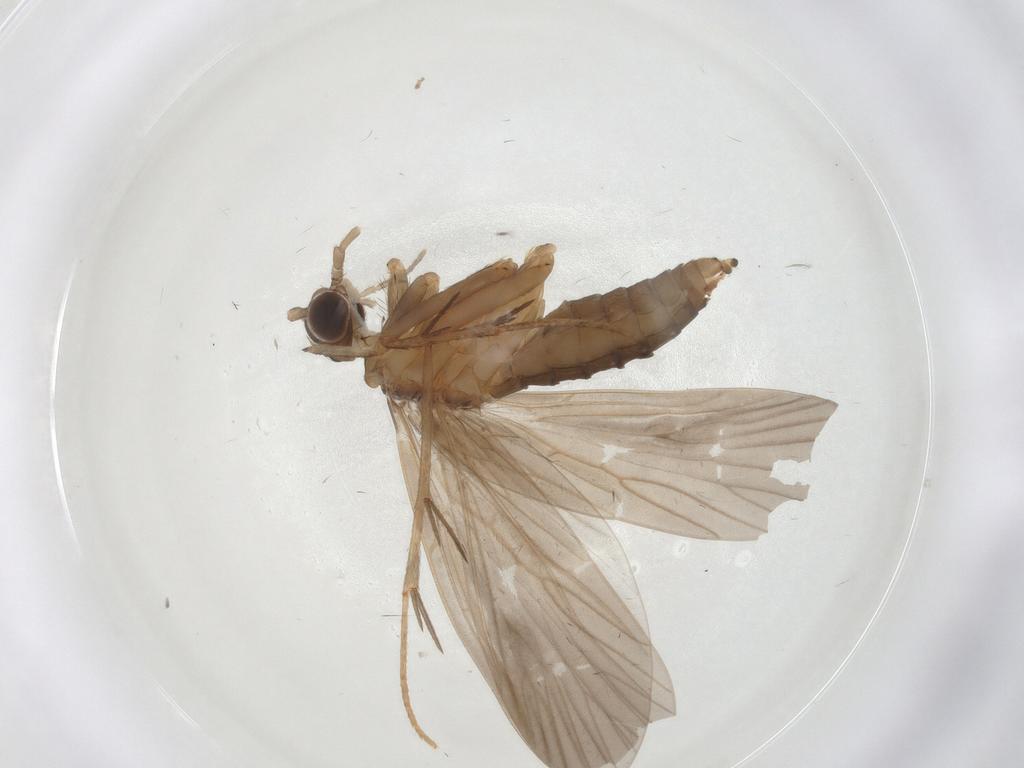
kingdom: Animalia
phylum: Arthropoda
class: Insecta
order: Trichoptera
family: Philopotamidae
